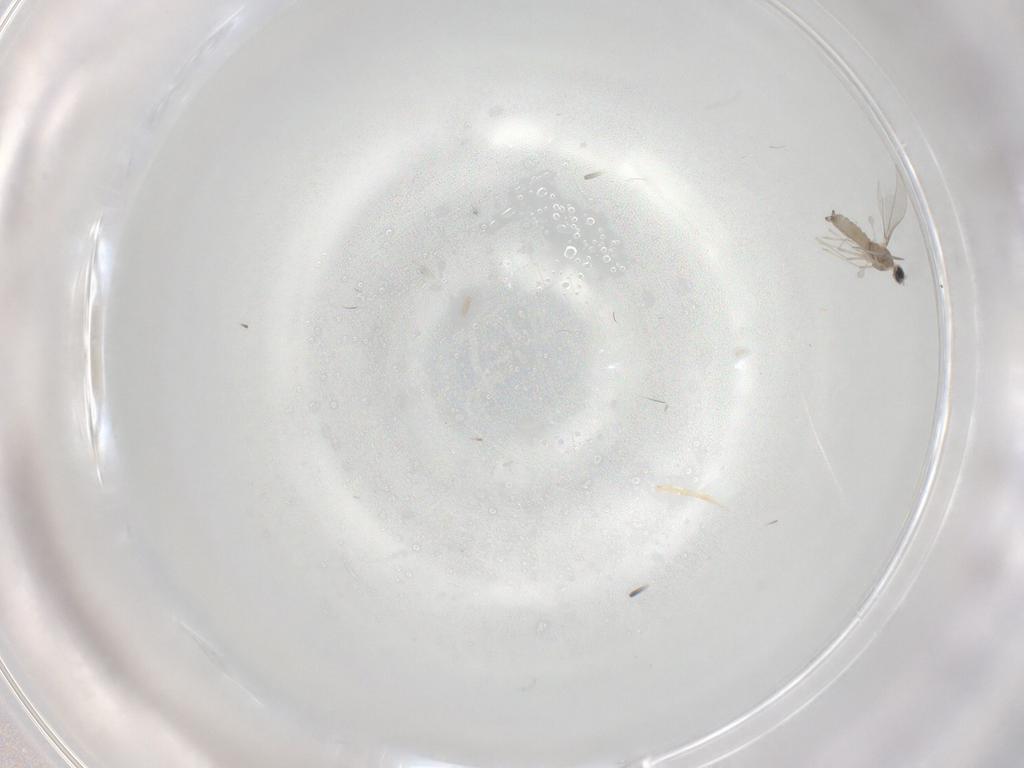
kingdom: Animalia
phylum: Arthropoda
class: Insecta
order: Diptera
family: Cecidomyiidae
